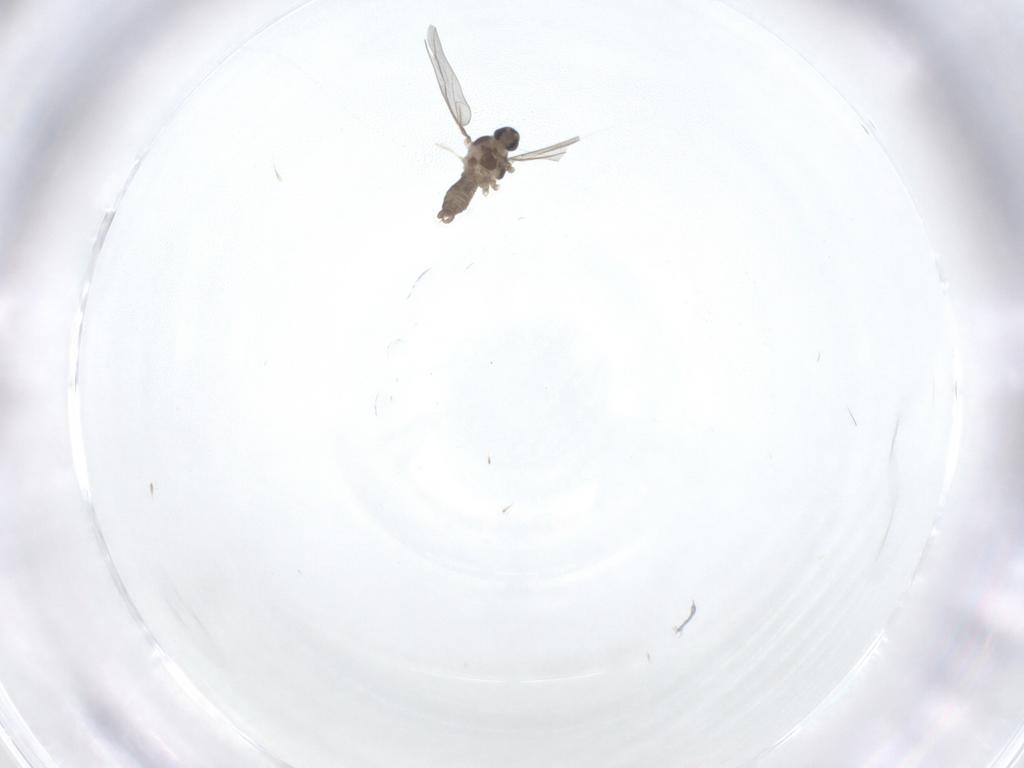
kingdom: Animalia
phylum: Arthropoda
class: Insecta
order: Diptera
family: Cecidomyiidae
